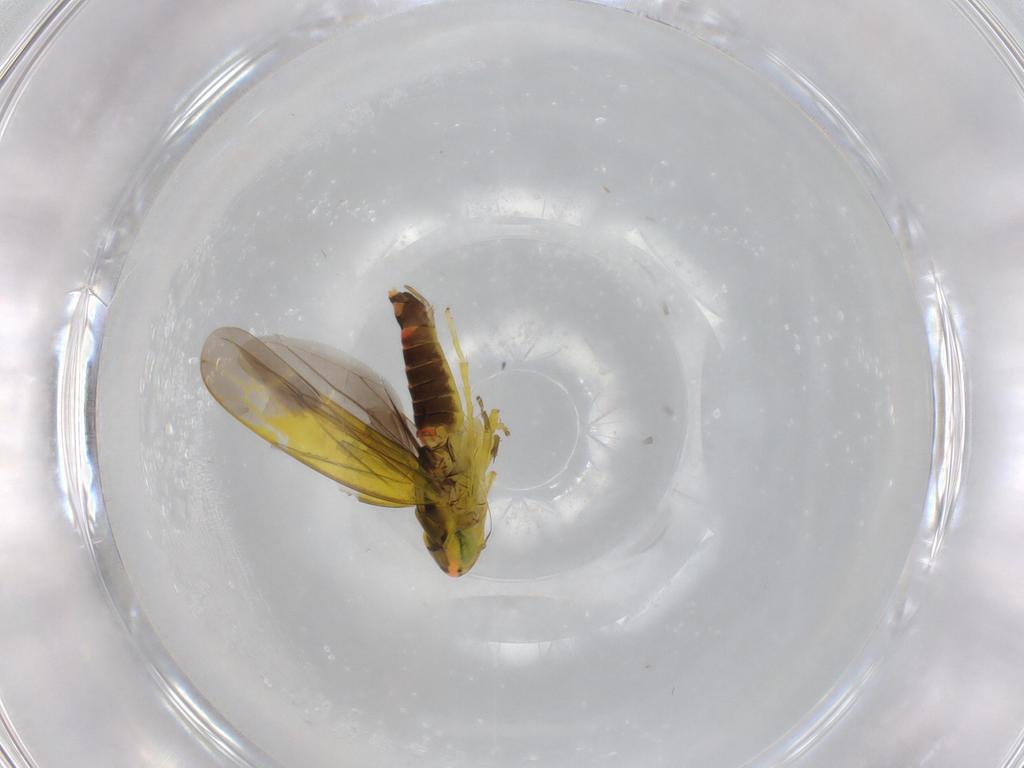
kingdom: Animalia
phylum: Arthropoda
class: Insecta
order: Hemiptera
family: Cicadellidae
